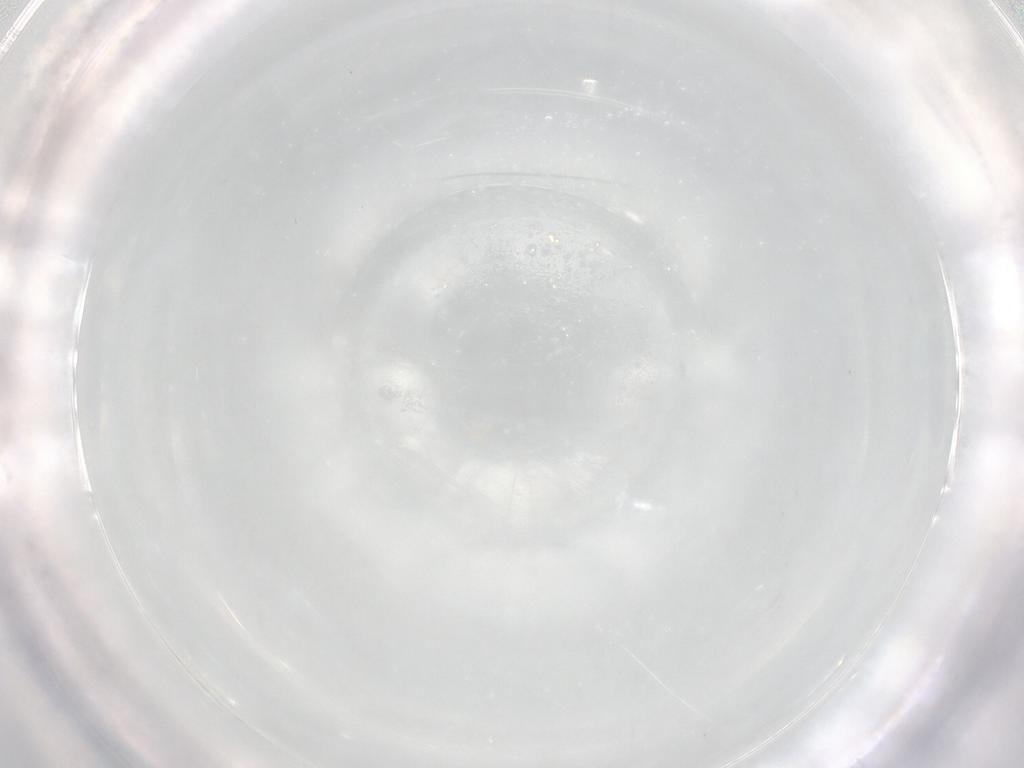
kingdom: Animalia
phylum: Arthropoda
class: Insecta
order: Hymenoptera
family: Mymaridae
